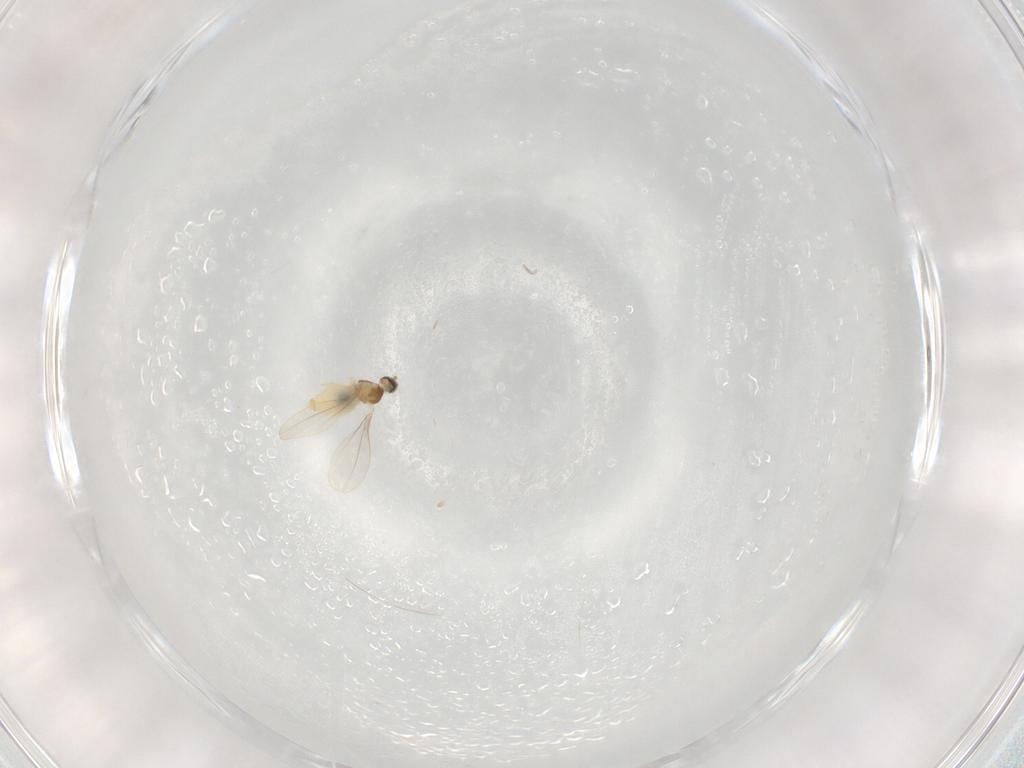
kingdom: Animalia
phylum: Arthropoda
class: Insecta
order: Diptera
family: Cecidomyiidae
